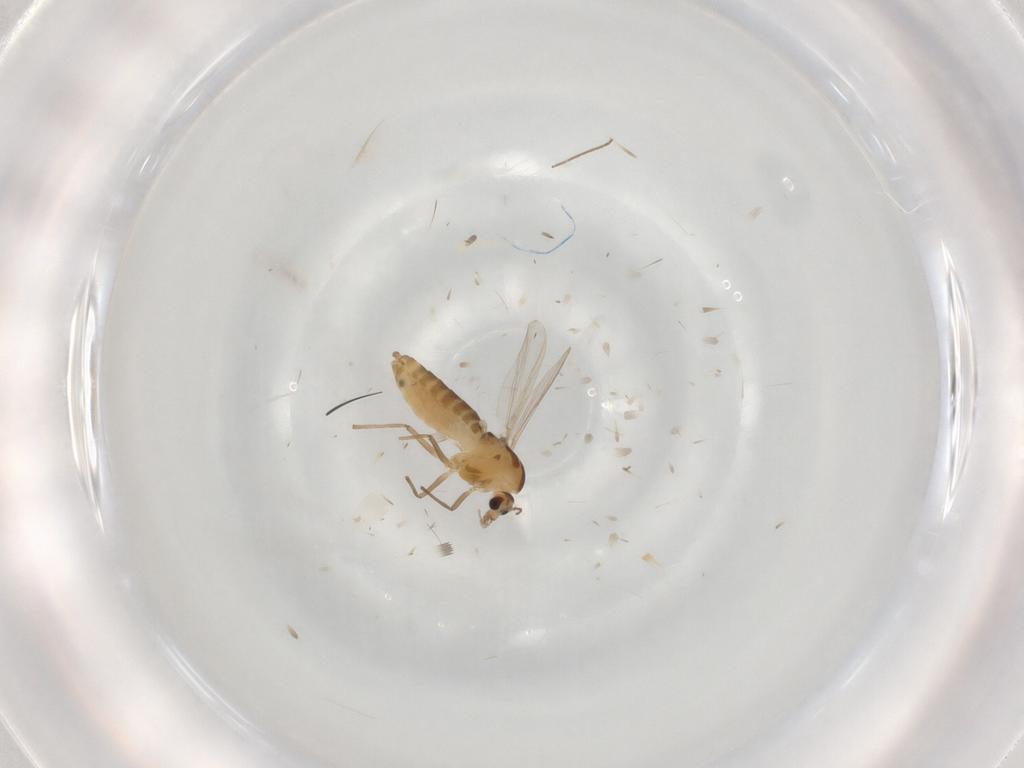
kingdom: Animalia
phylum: Arthropoda
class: Insecta
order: Diptera
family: Chironomidae
